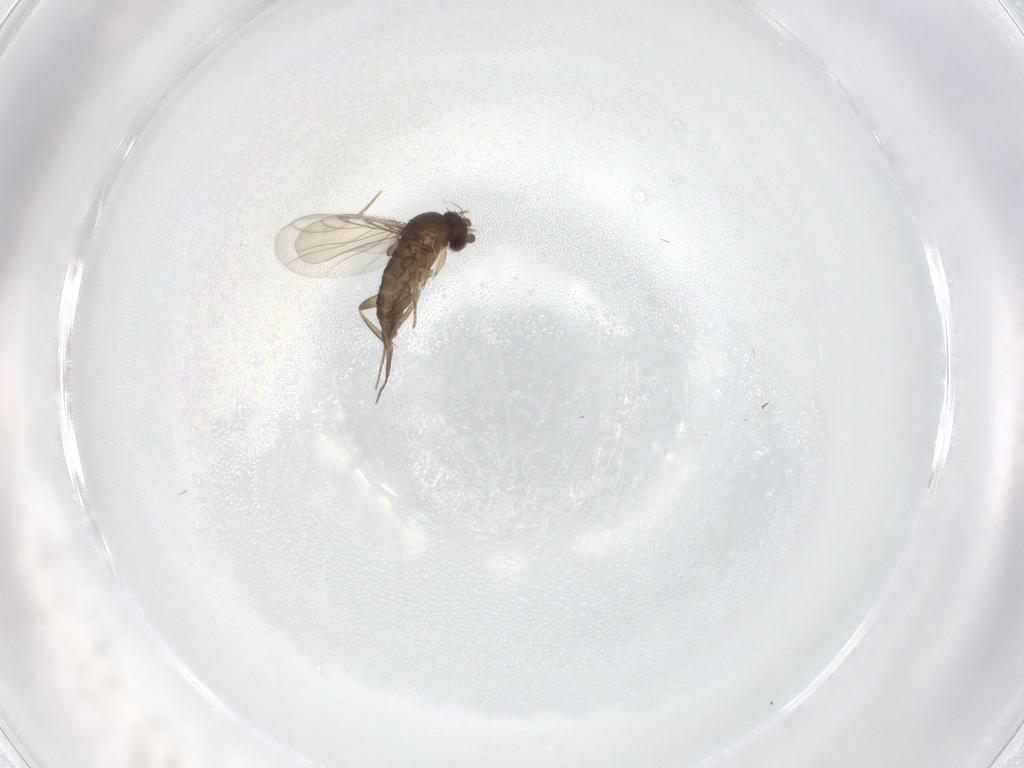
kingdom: Animalia
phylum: Arthropoda
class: Insecta
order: Diptera
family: Phoridae
